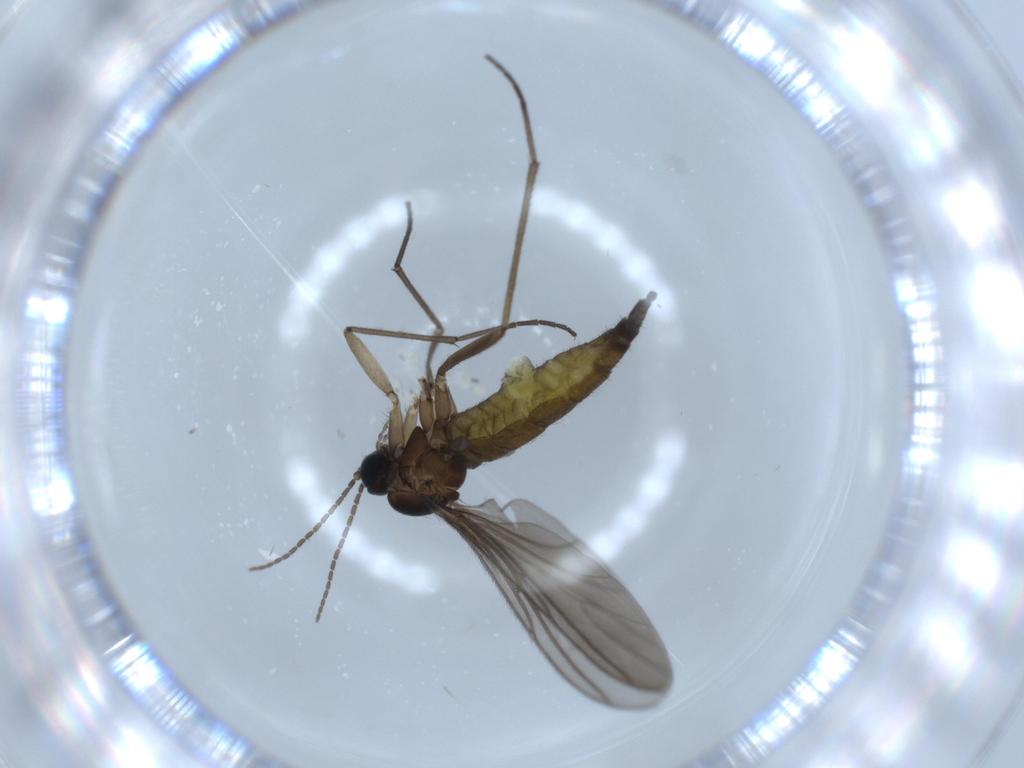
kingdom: Animalia
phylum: Arthropoda
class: Insecta
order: Diptera
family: Sciaridae
